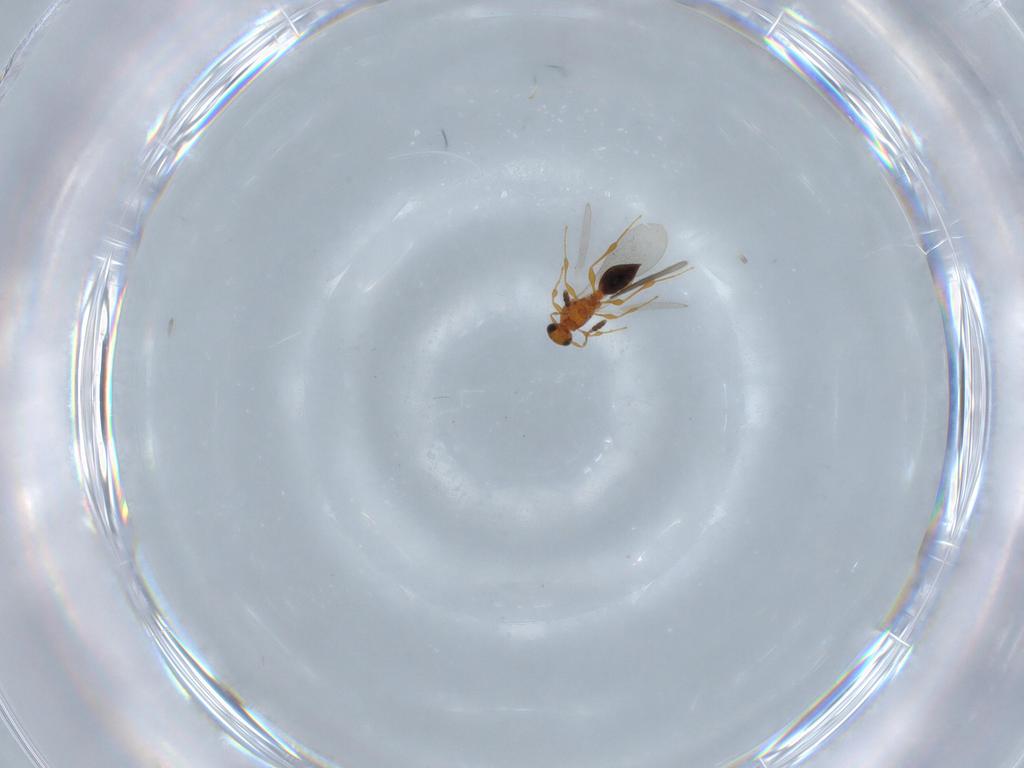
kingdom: Animalia
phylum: Arthropoda
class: Insecta
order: Hymenoptera
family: Platygastridae
